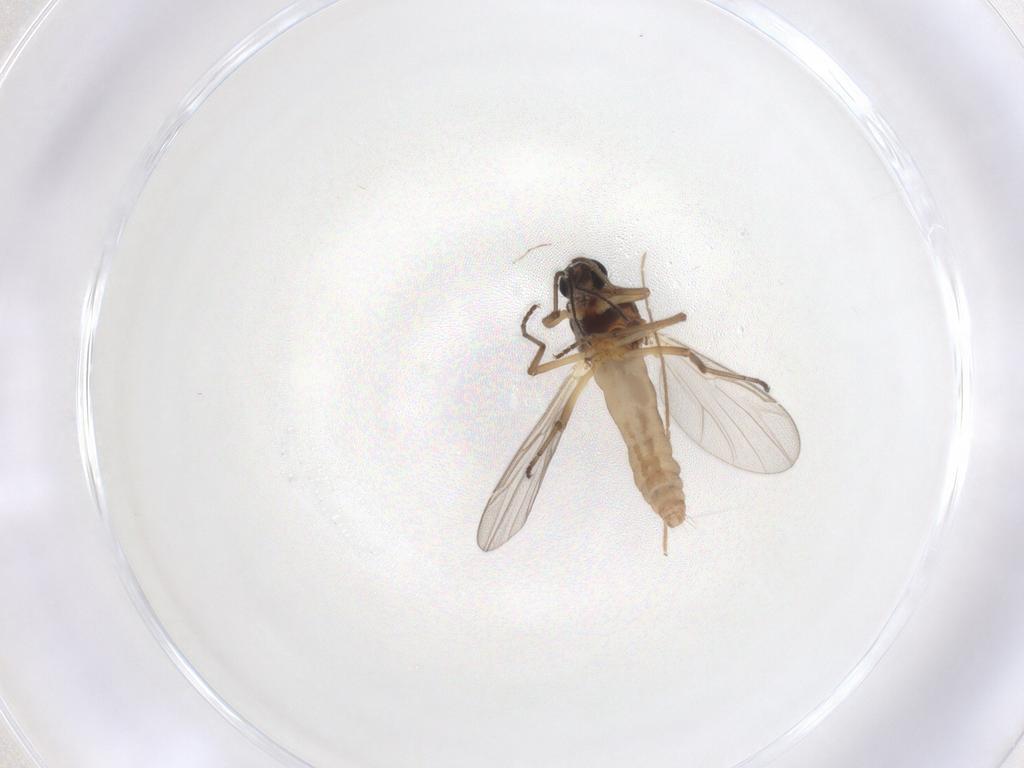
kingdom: Animalia
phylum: Arthropoda
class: Insecta
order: Diptera
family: Ceratopogonidae
